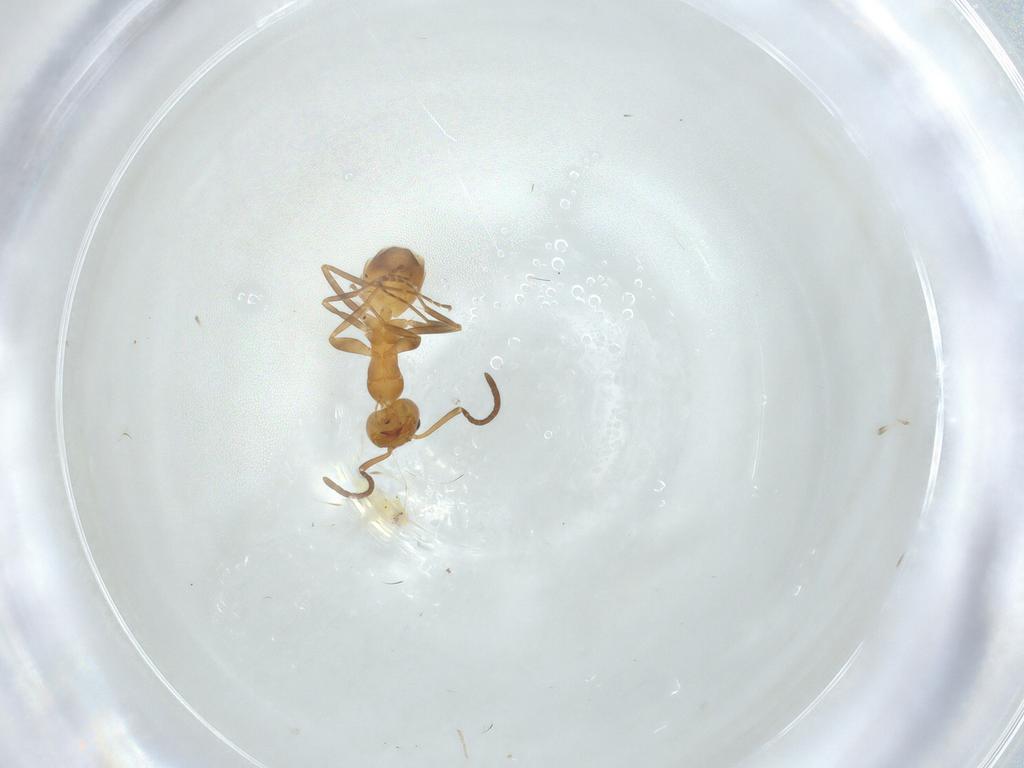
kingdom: Animalia
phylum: Arthropoda
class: Insecta
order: Hymenoptera
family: Formicidae
